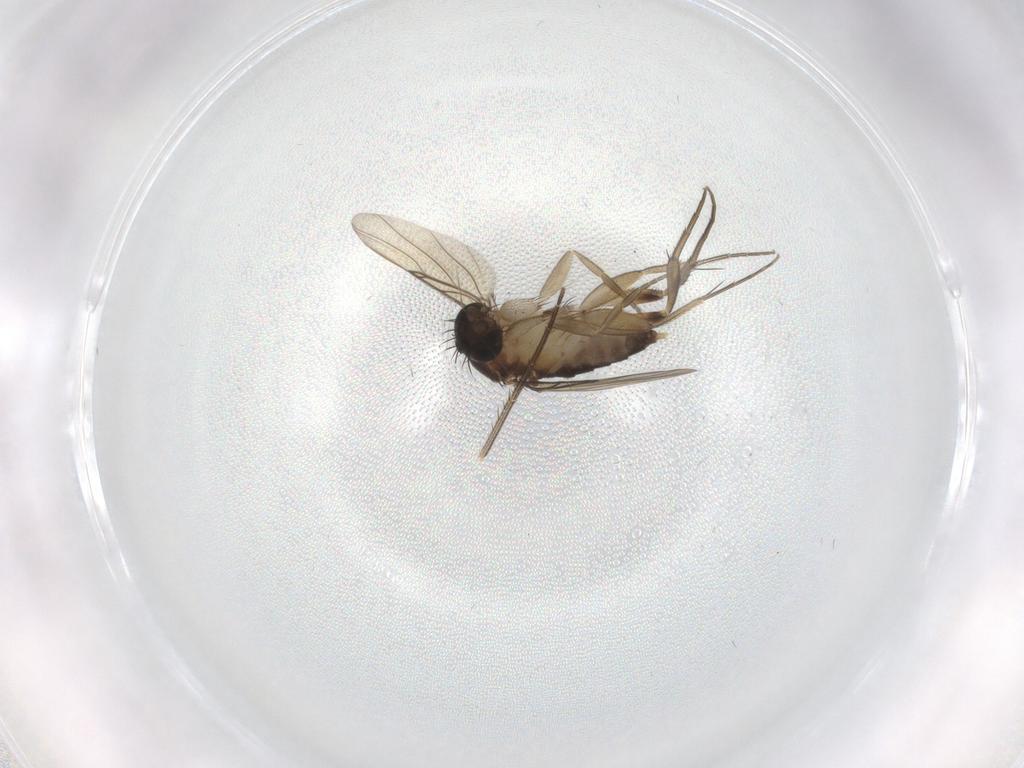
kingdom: Animalia
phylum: Arthropoda
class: Insecta
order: Diptera
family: Phoridae
